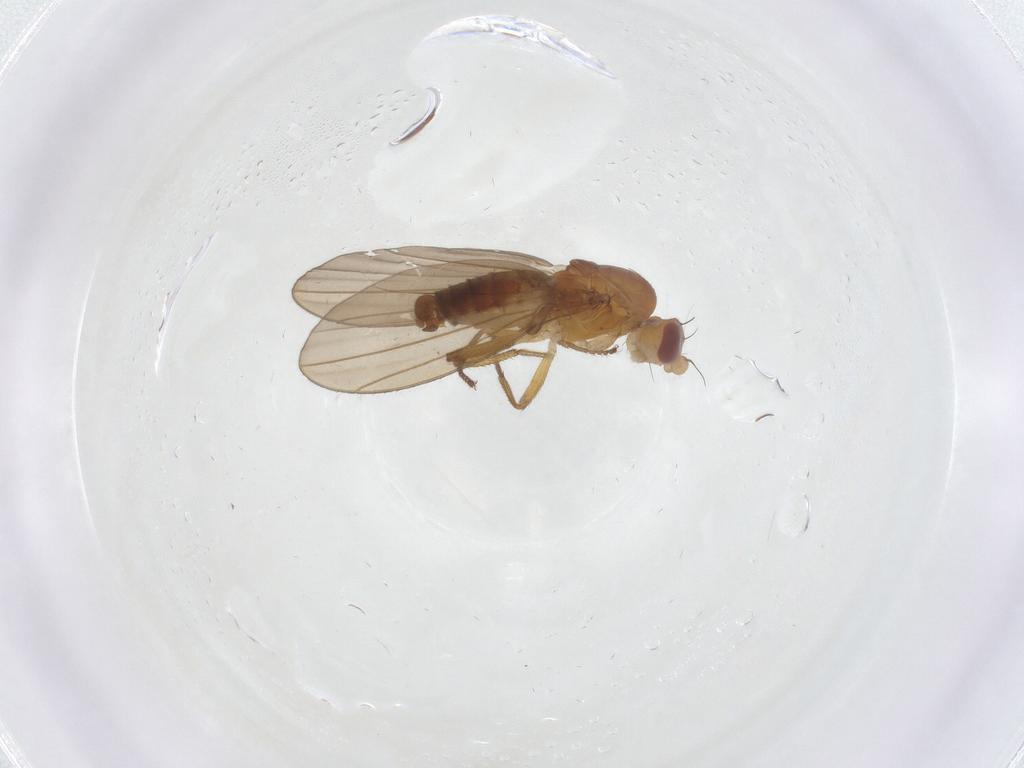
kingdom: Animalia
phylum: Arthropoda
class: Insecta
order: Diptera
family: Anthomyzidae
